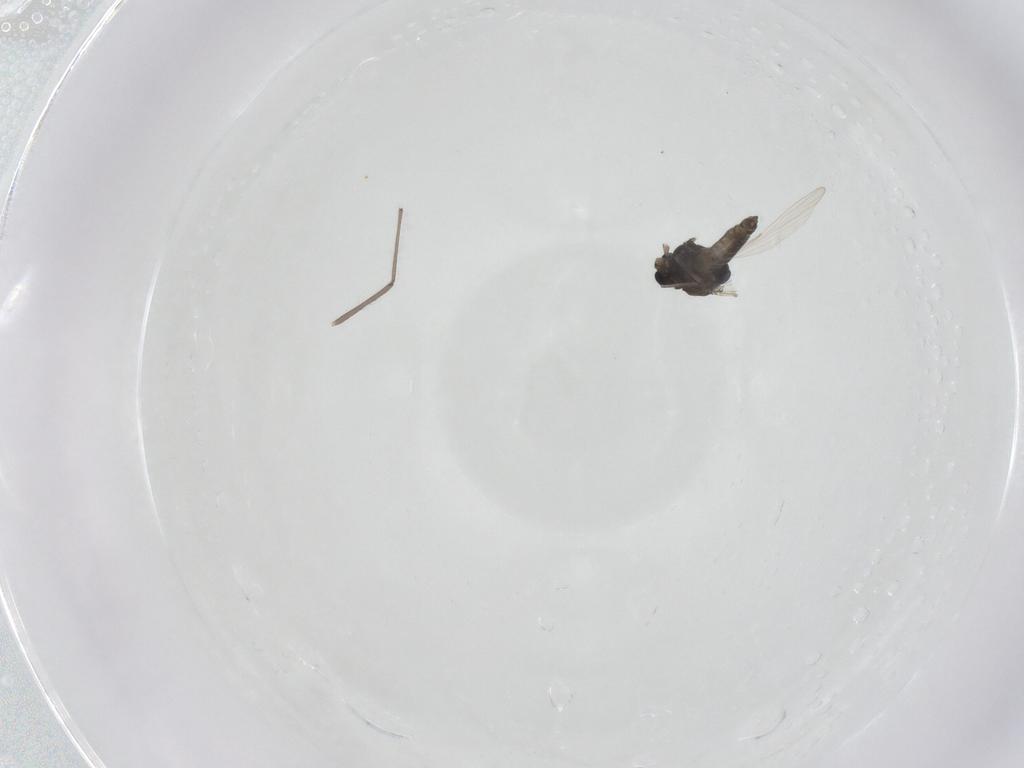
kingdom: Animalia
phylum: Arthropoda
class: Insecta
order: Diptera
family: Chironomidae
